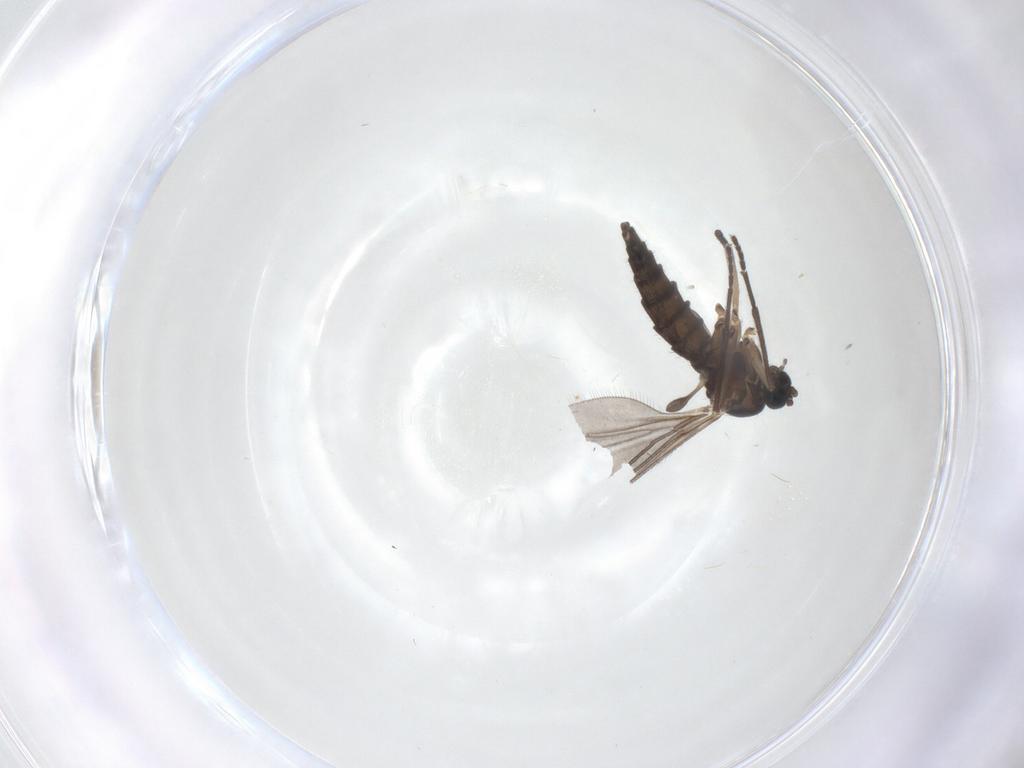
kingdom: Animalia
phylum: Arthropoda
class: Insecta
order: Diptera
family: Sciaridae
